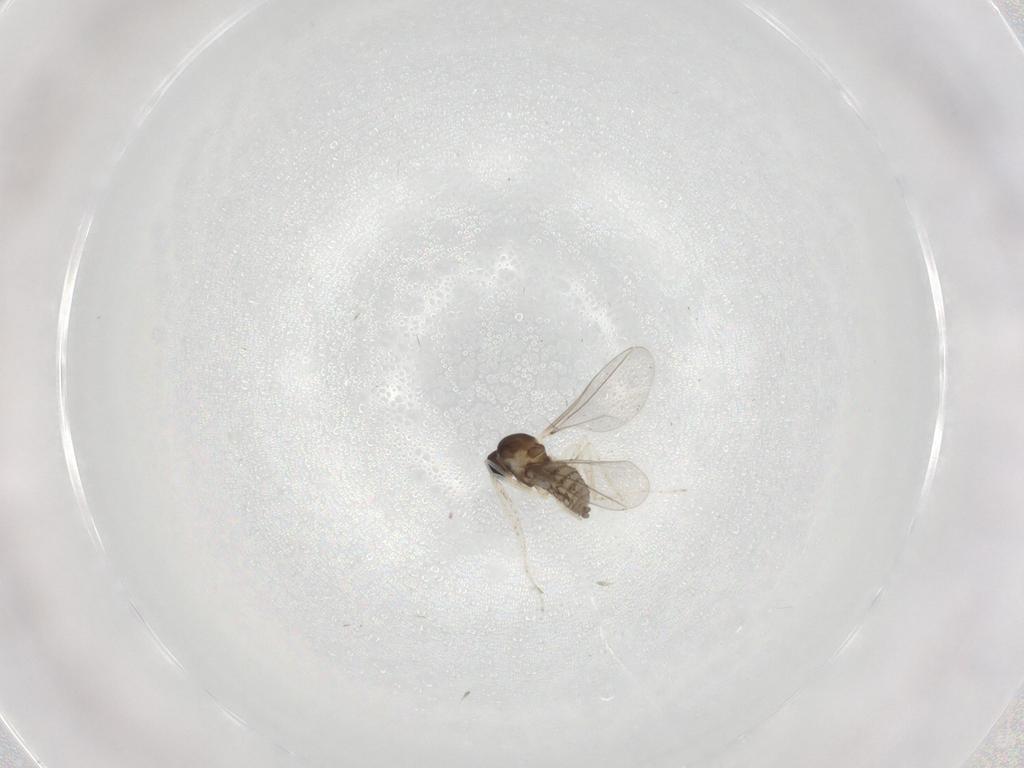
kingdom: Animalia
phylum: Arthropoda
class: Insecta
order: Diptera
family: Cecidomyiidae
